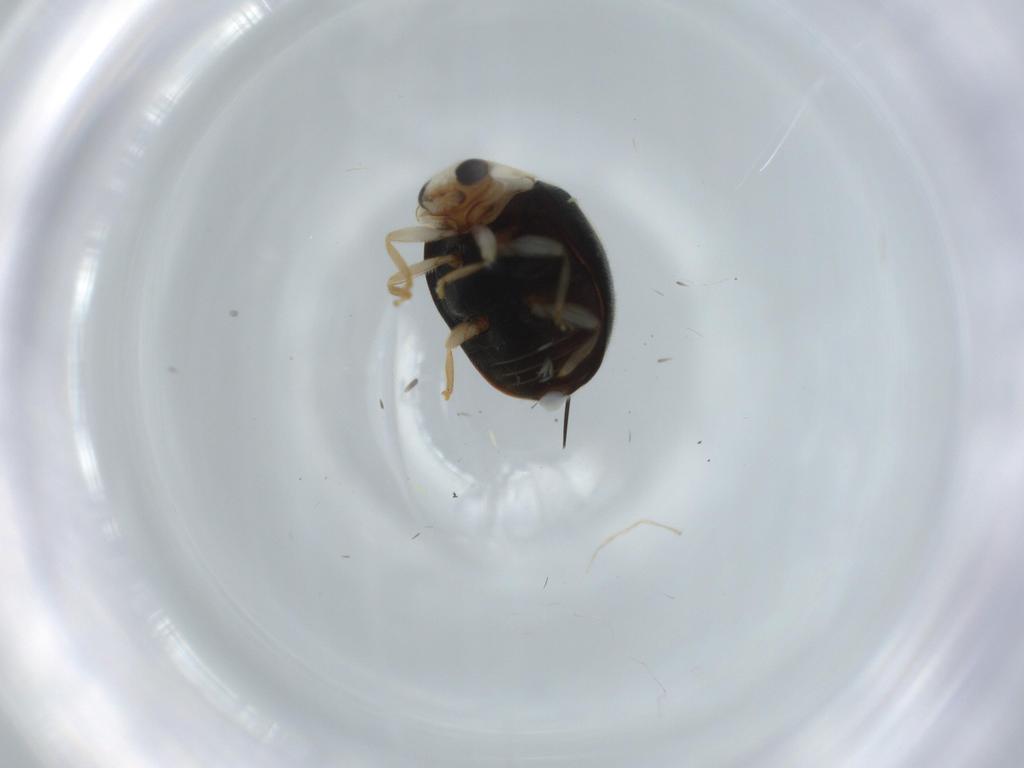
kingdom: Animalia
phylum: Arthropoda
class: Insecta
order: Coleoptera
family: Coccinellidae
